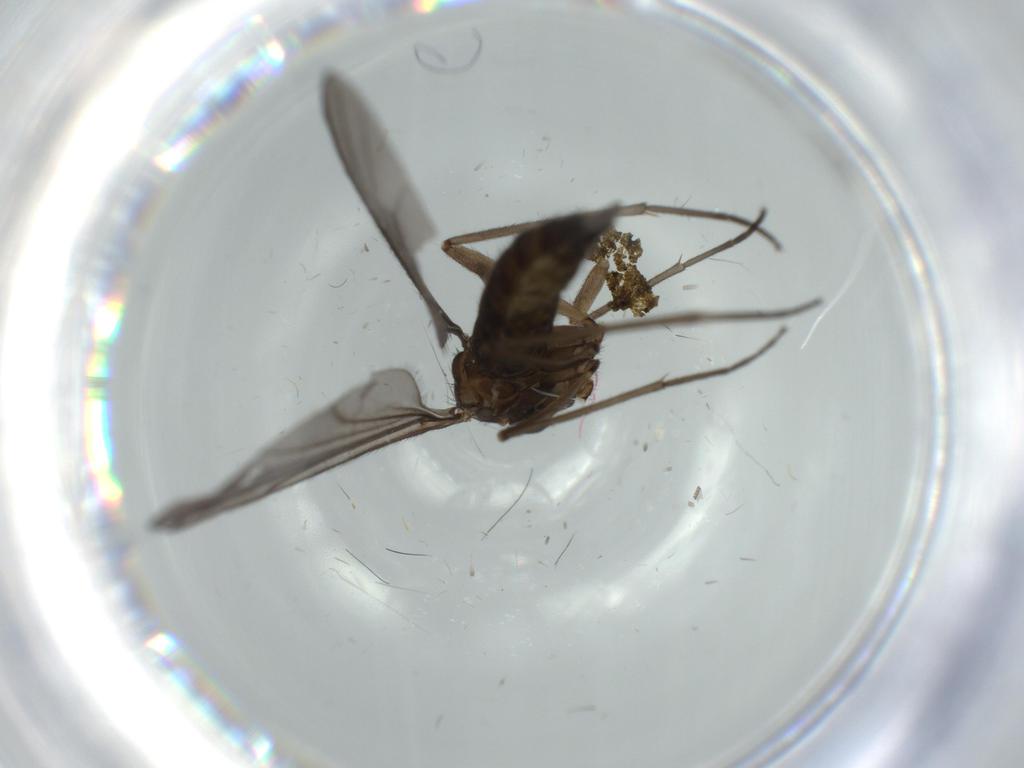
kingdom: Animalia
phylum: Arthropoda
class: Insecta
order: Diptera
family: Sciaridae
